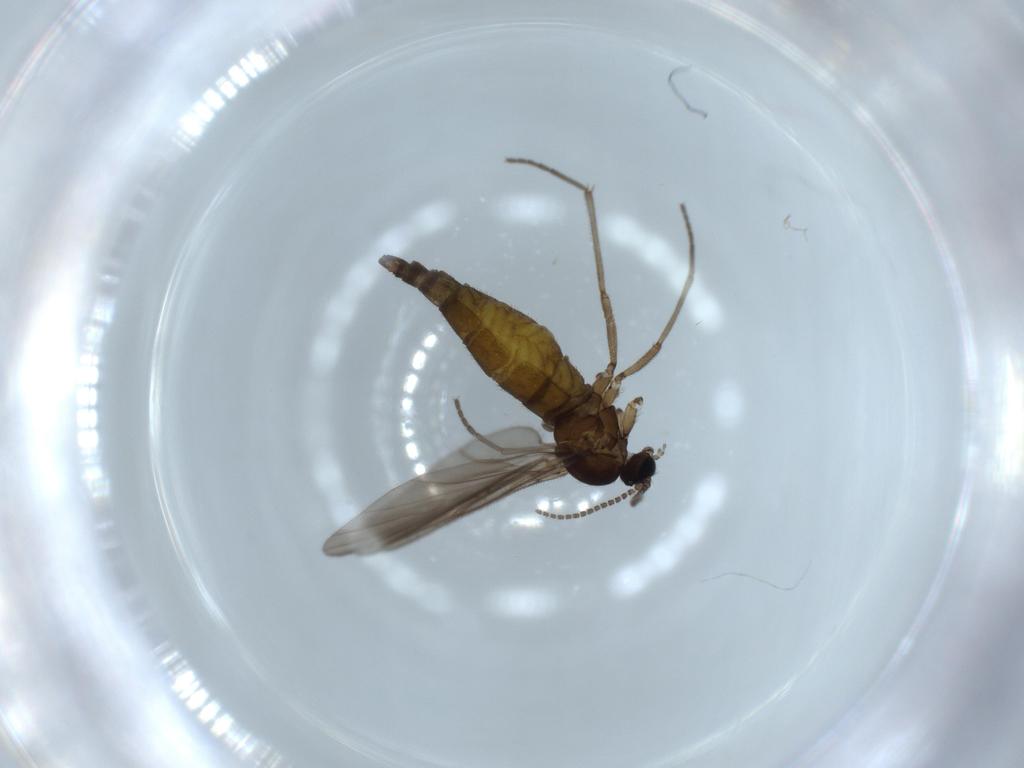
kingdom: Animalia
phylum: Arthropoda
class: Insecta
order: Diptera
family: Sciaridae
